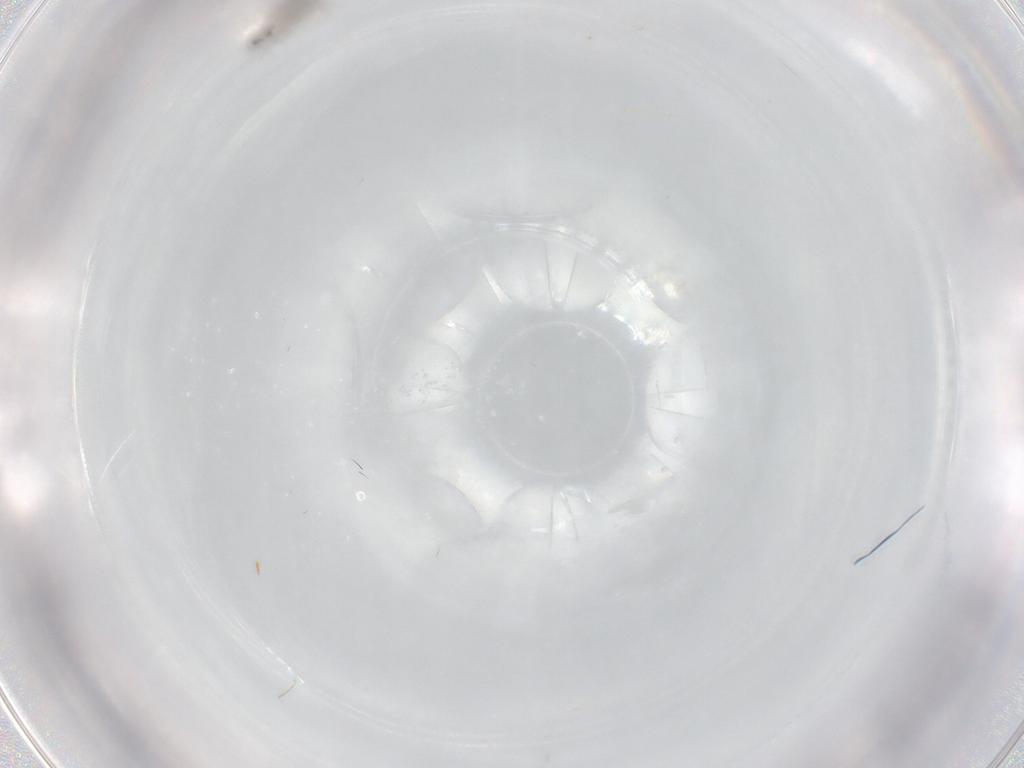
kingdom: Animalia
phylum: Arthropoda
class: Insecta
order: Diptera
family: Cecidomyiidae
